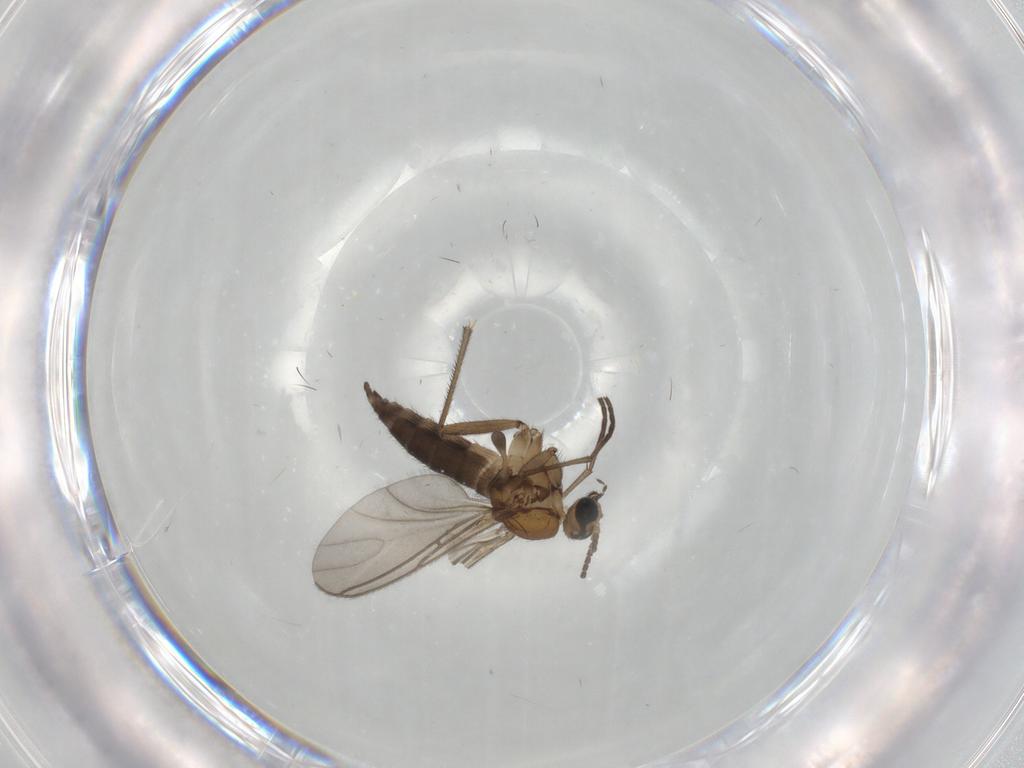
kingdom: Animalia
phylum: Arthropoda
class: Insecta
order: Diptera
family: Sciaridae
